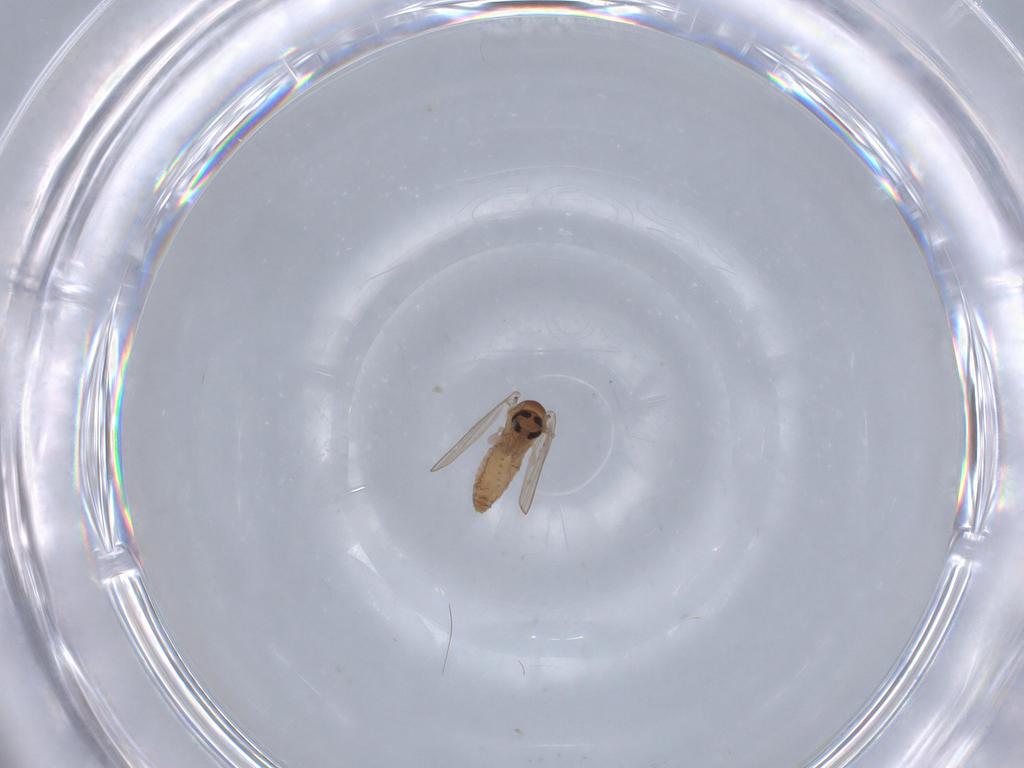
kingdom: Animalia
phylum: Arthropoda
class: Insecta
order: Diptera
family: Psychodidae
